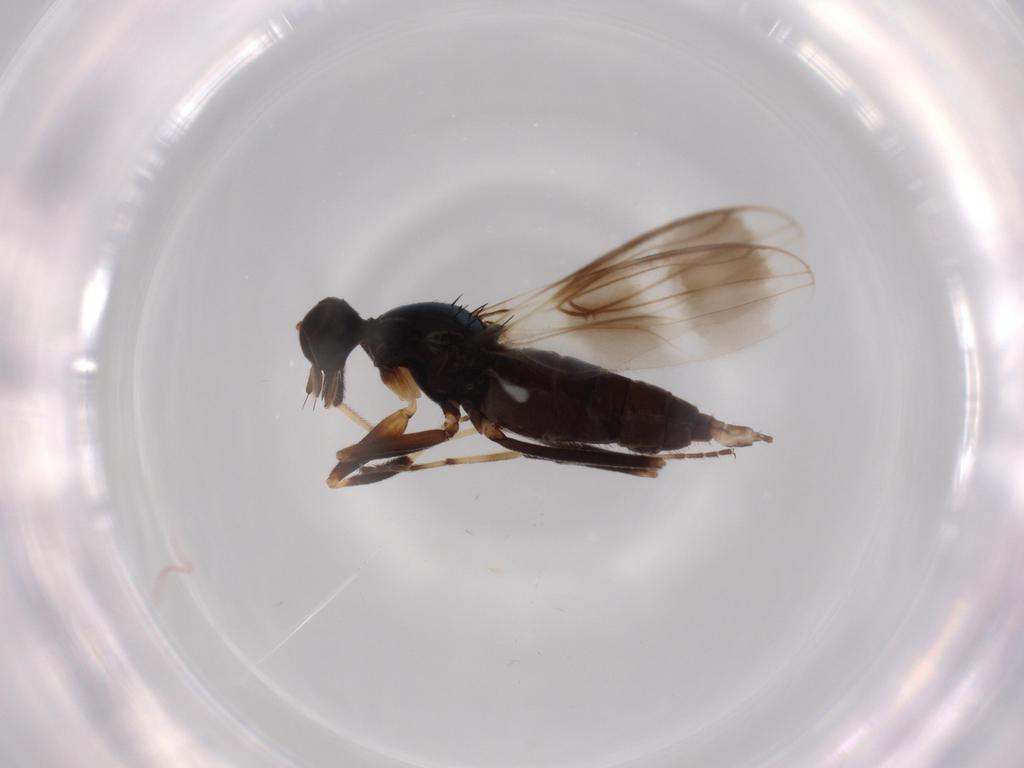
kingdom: Animalia
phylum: Arthropoda
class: Insecta
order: Diptera
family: Hybotidae
